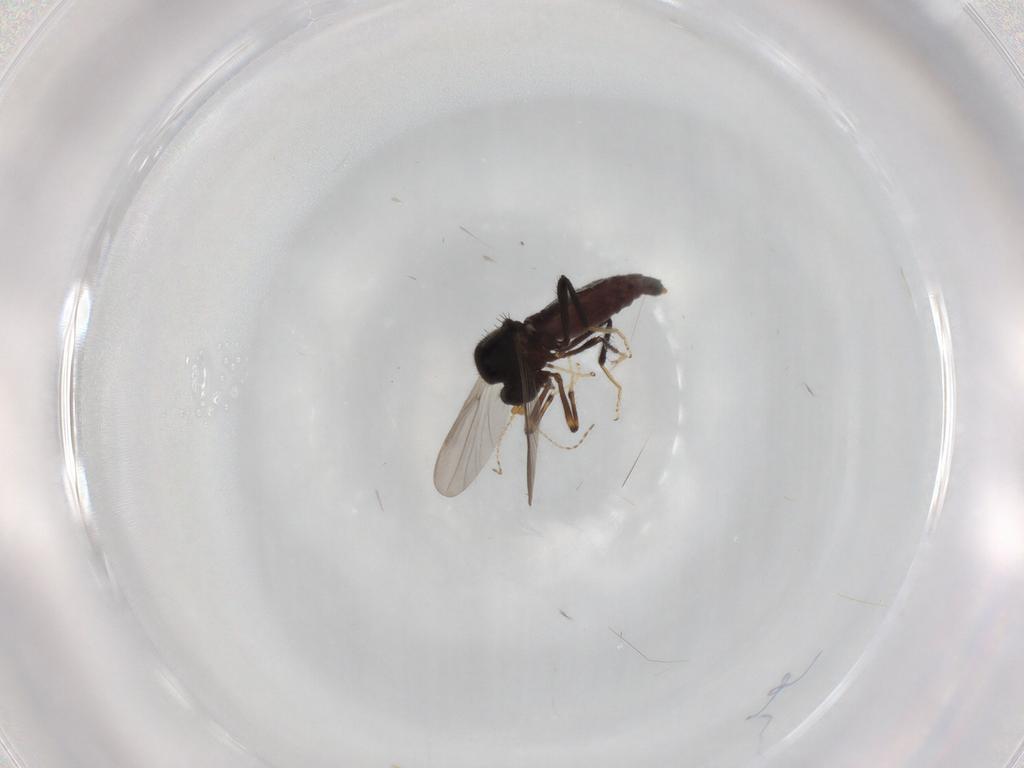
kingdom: Animalia
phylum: Arthropoda
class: Insecta
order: Diptera
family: Ceratopogonidae
